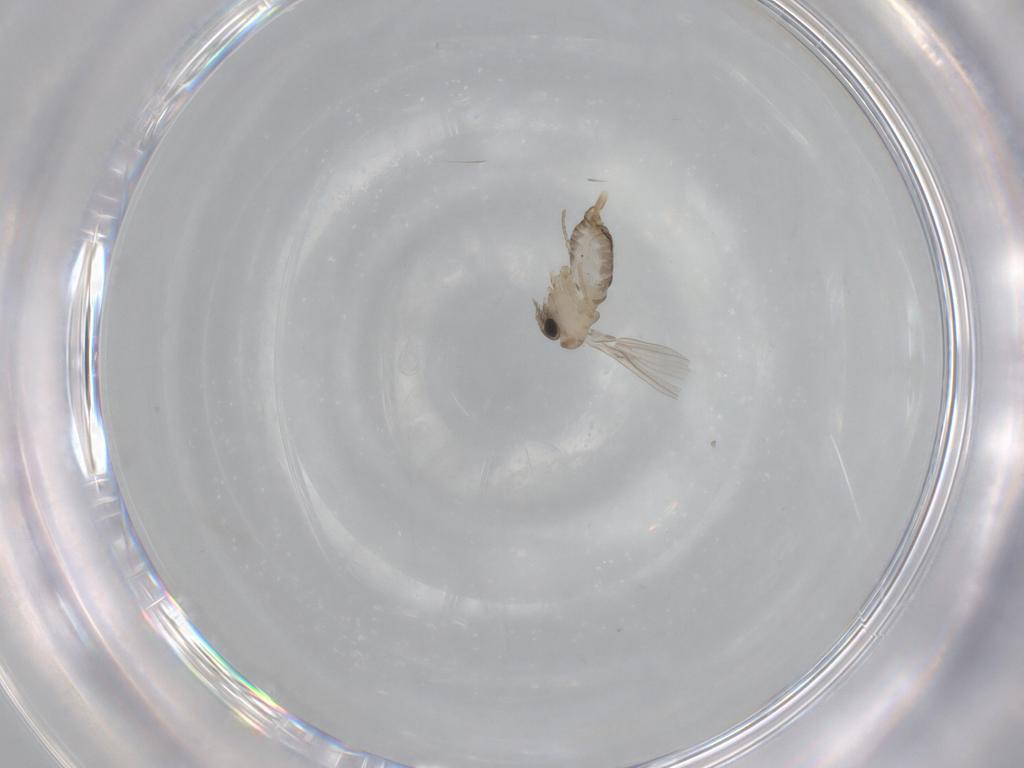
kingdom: Animalia
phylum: Arthropoda
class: Insecta
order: Diptera
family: Psychodidae
